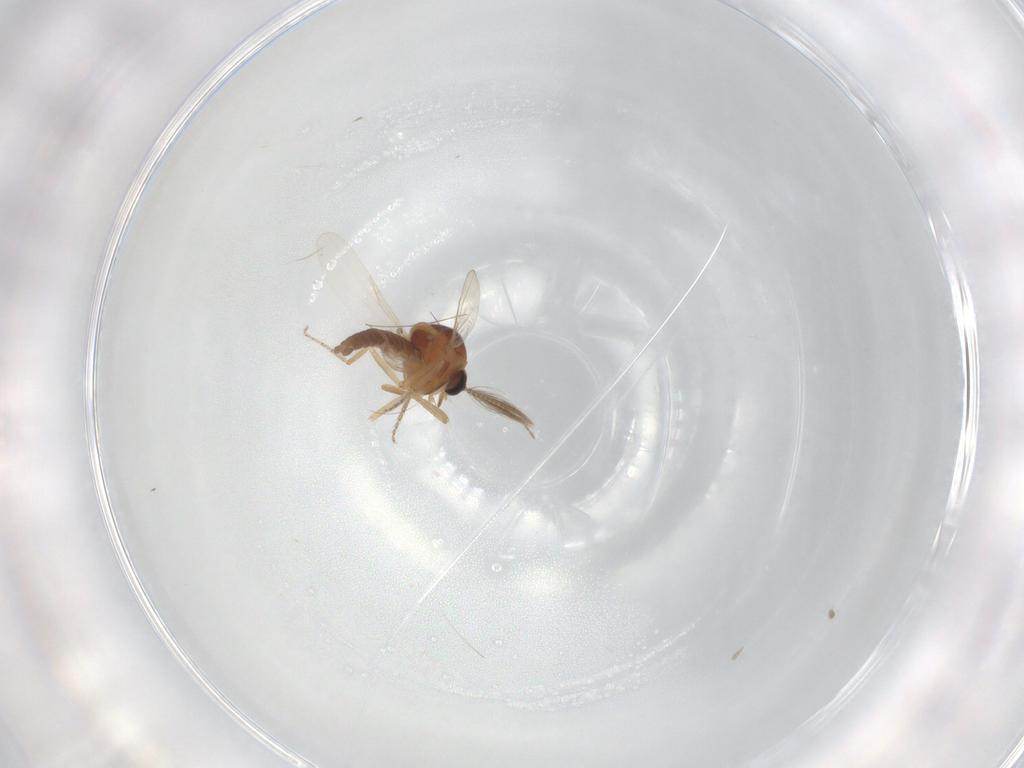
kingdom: Animalia
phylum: Arthropoda
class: Insecta
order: Diptera
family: Ceratopogonidae
